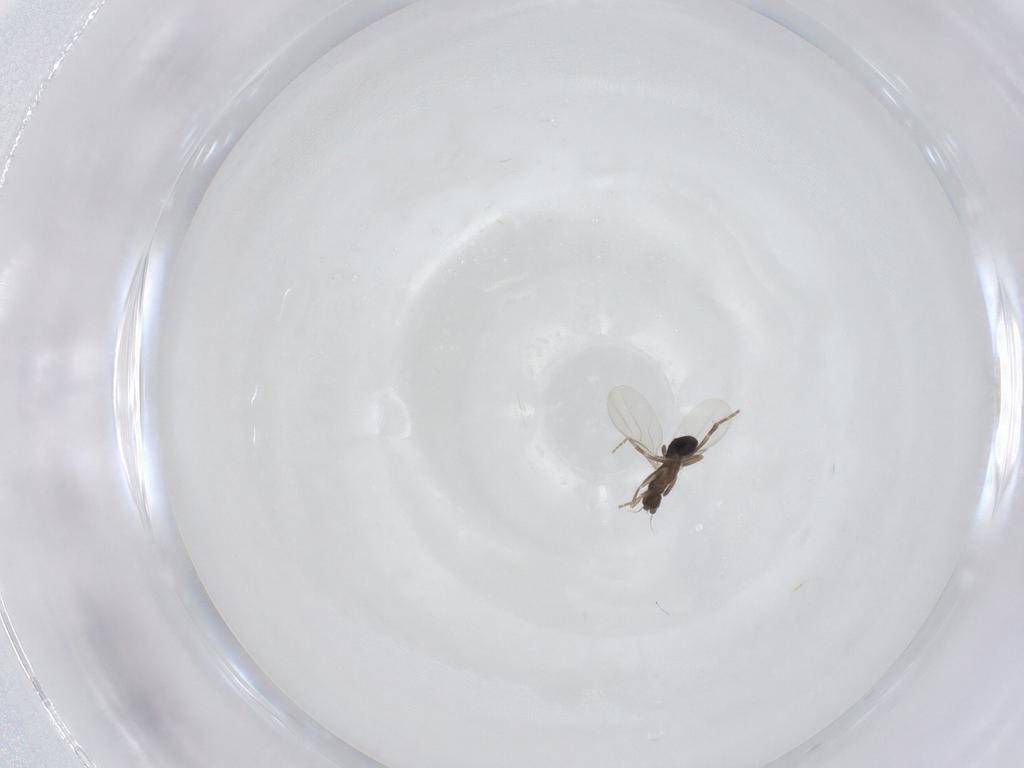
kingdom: Animalia
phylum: Arthropoda
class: Insecta
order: Diptera
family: Phoridae
